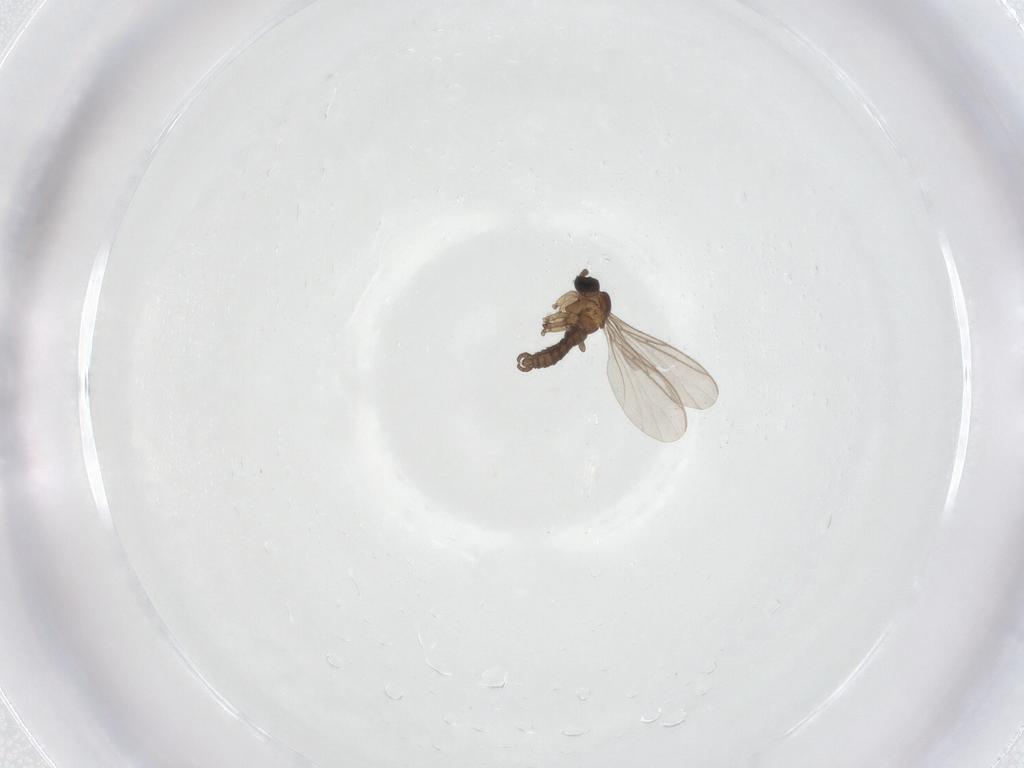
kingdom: Animalia
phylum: Arthropoda
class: Insecta
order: Diptera
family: Sciaridae
